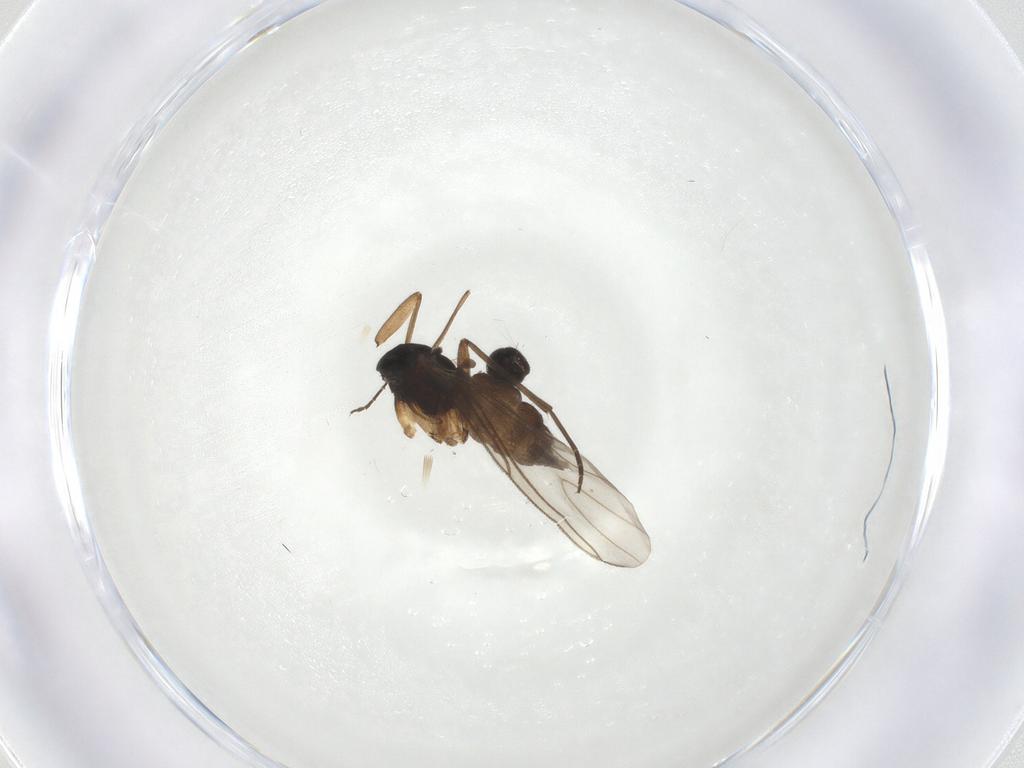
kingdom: Animalia
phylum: Arthropoda
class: Insecta
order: Diptera
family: Sciaridae
